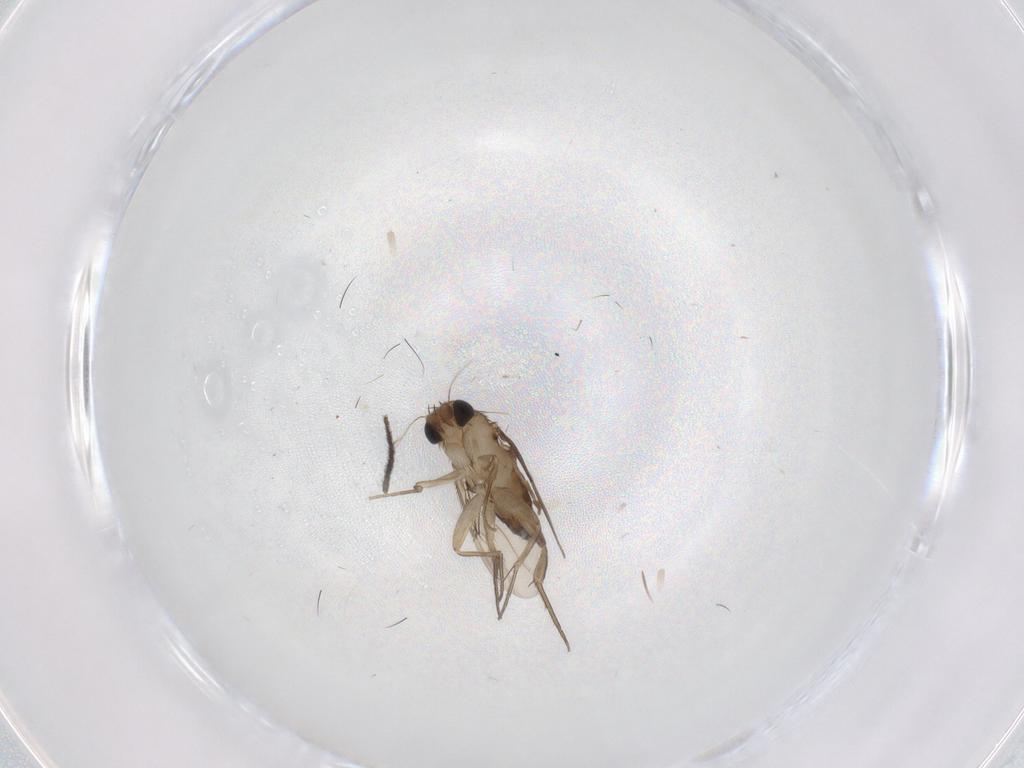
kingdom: Animalia
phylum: Arthropoda
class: Insecta
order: Diptera
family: Phoridae
